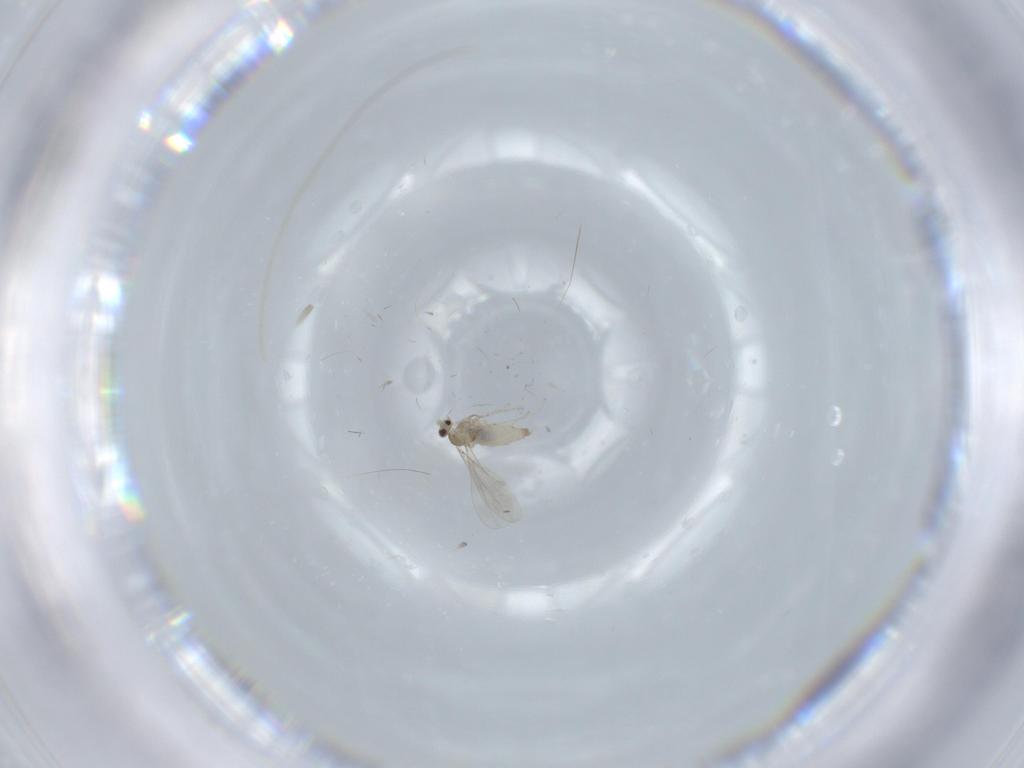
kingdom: Animalia
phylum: Arthropoda
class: Insecta
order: Diptera
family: Cecidomyiidae
